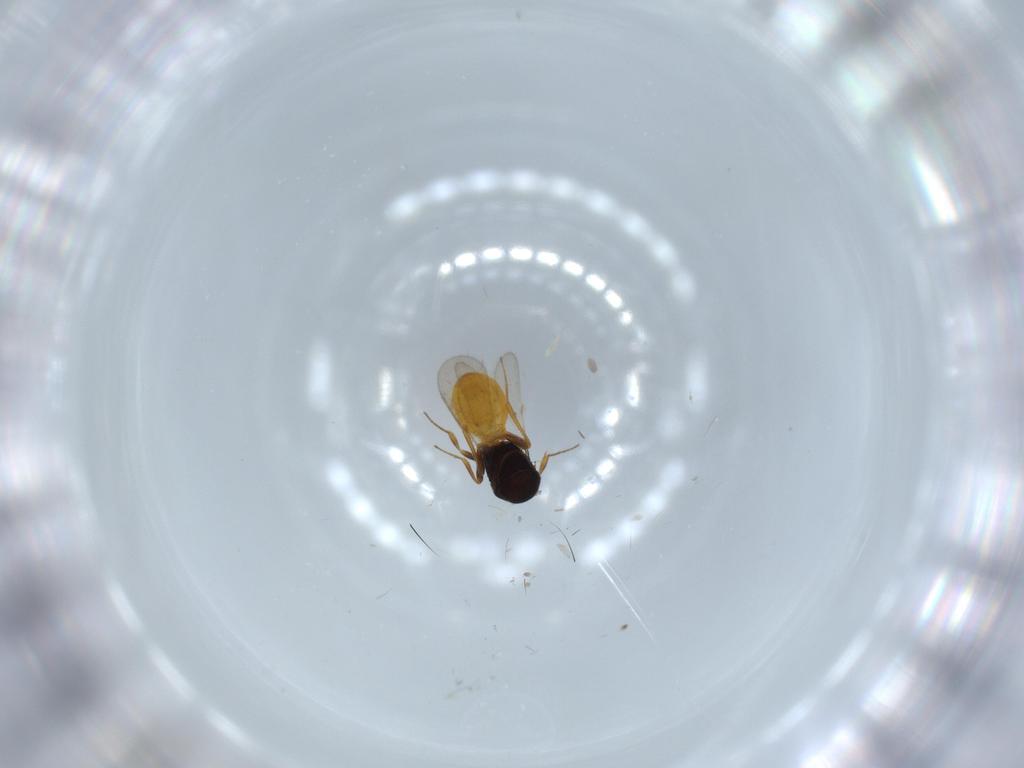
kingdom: Animalia
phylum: Arthropoda
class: Insecta
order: Hymenoptera
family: Scelionidae
